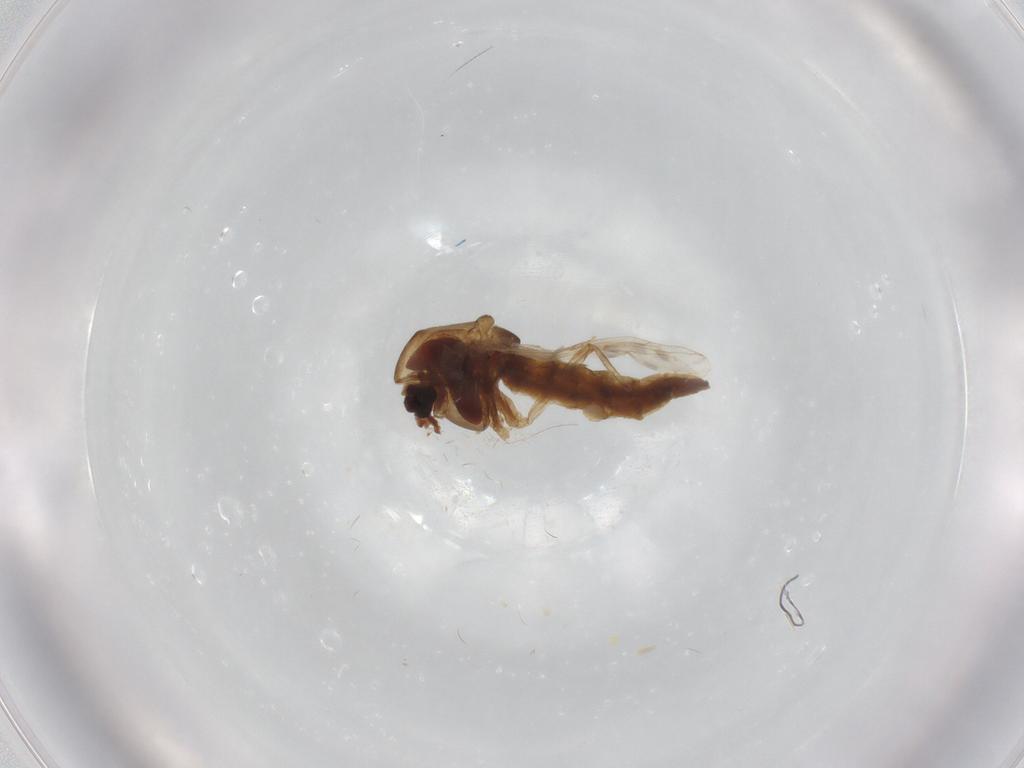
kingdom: Animalia
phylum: Arthropoda
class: Insecta
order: Diptera
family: Chironomidae
